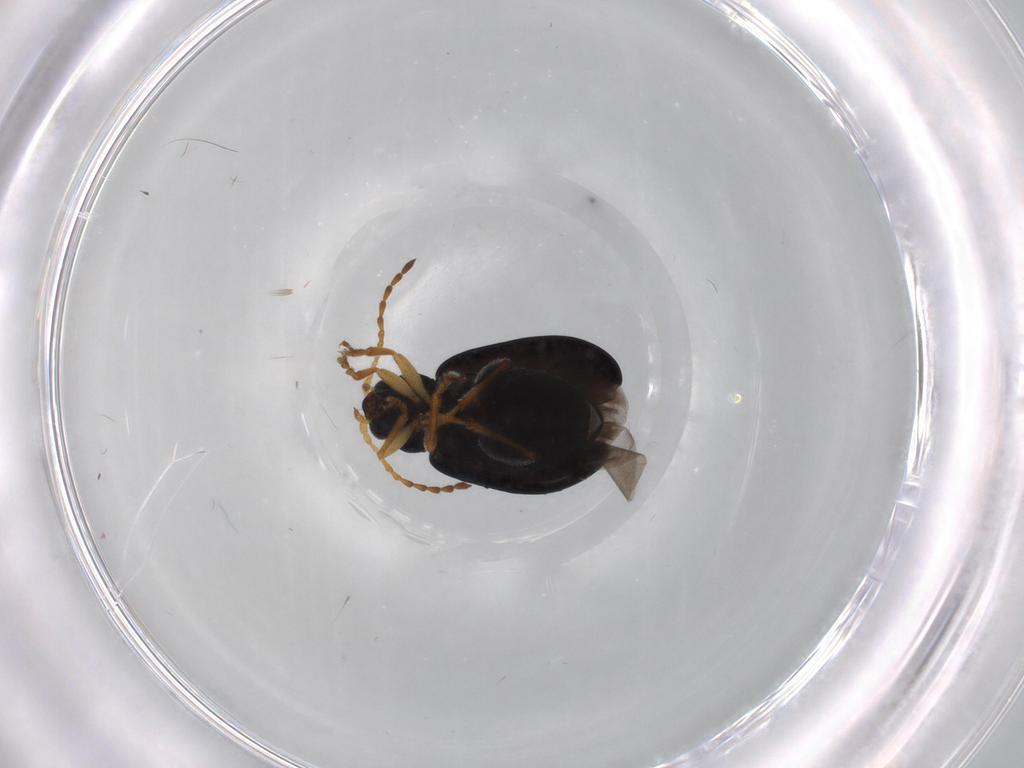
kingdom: Animalia
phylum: Arthropoda
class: Insecta
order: Coleoptera
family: Chrysomelidae
